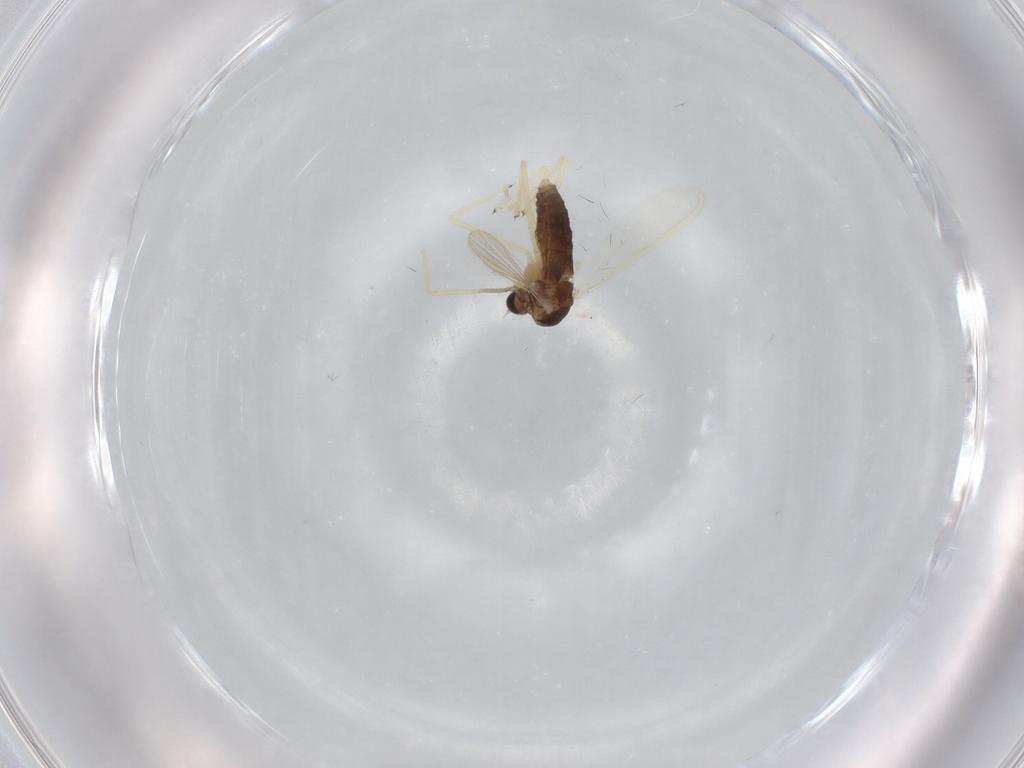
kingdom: Animalia
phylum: Arthropoda
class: Insecta
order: Diptera
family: Chironomidae
